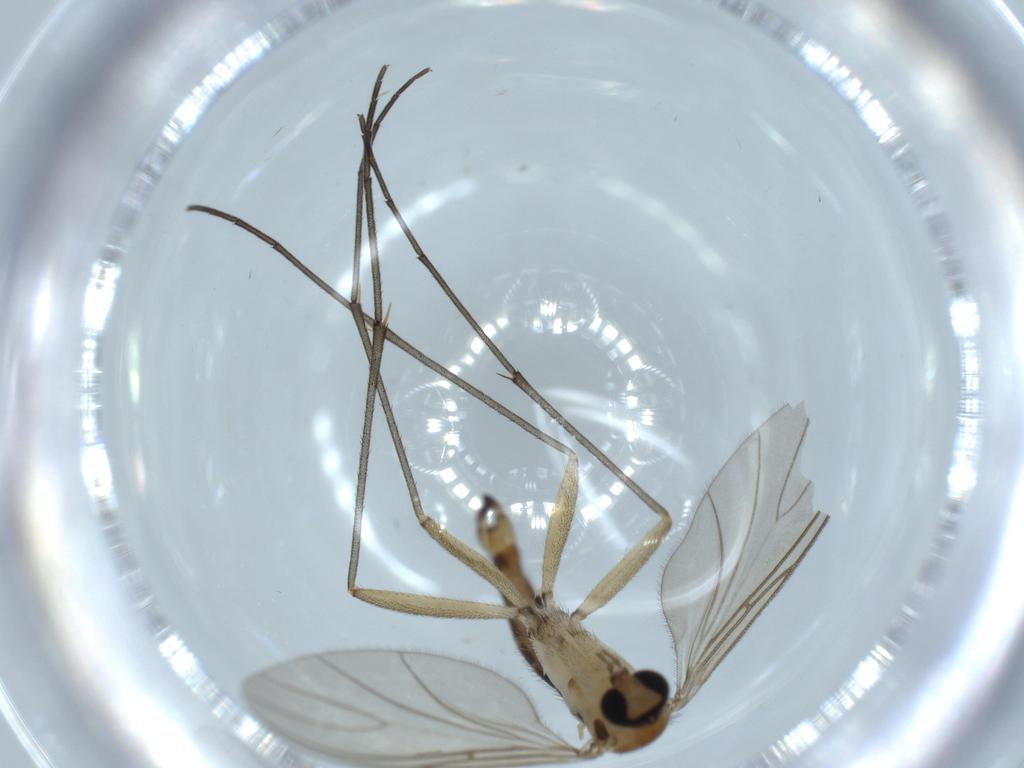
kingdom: Animalia
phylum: Arthropoda
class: Insecta
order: Diptera
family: Sciaridae
